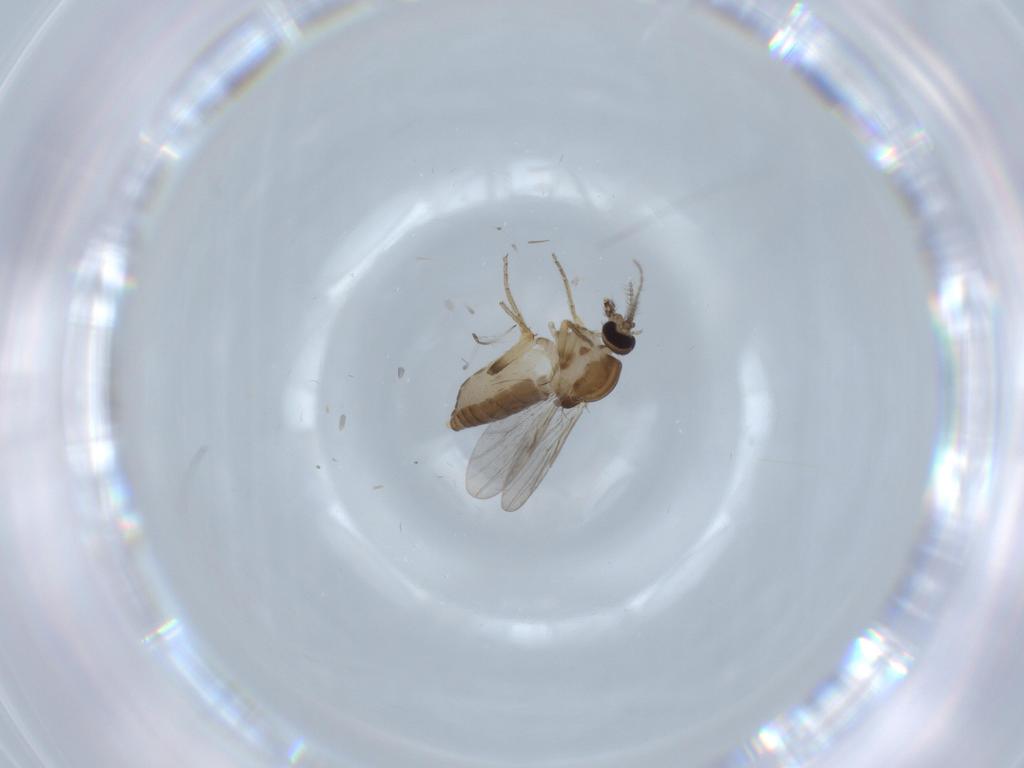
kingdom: Animalia
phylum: Arthropoda
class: Insecta
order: Diptera
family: Ceratopogonidae
